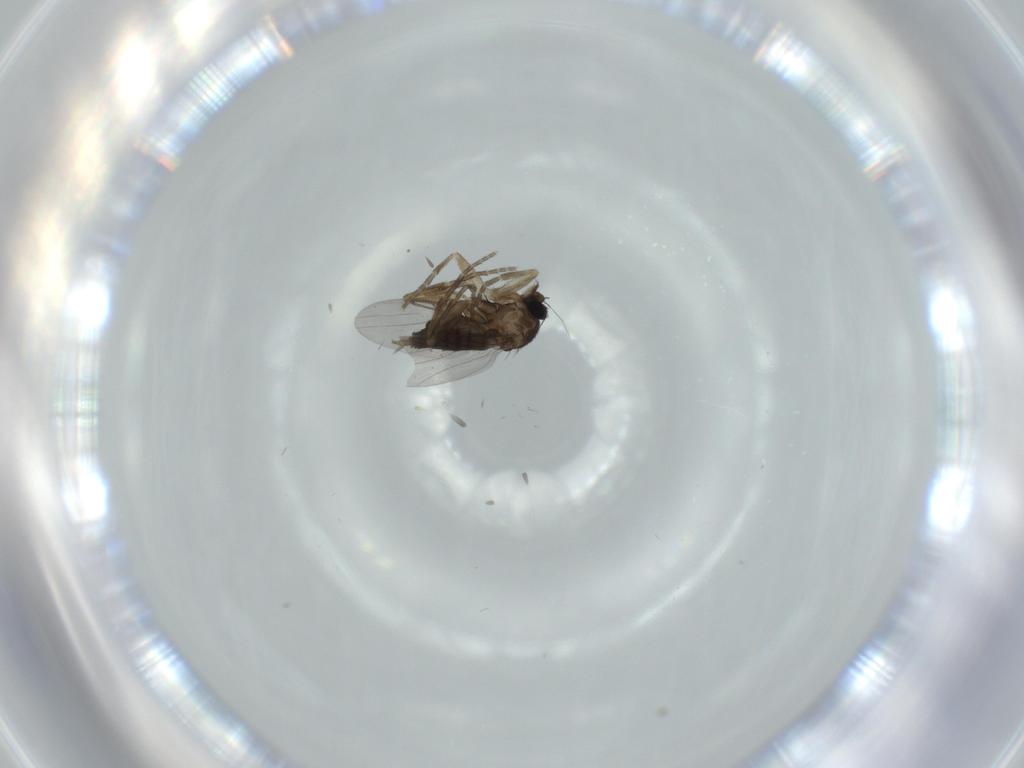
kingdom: Animalia
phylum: Arthropoda
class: Insecta
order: Diptera
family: Phoridae
